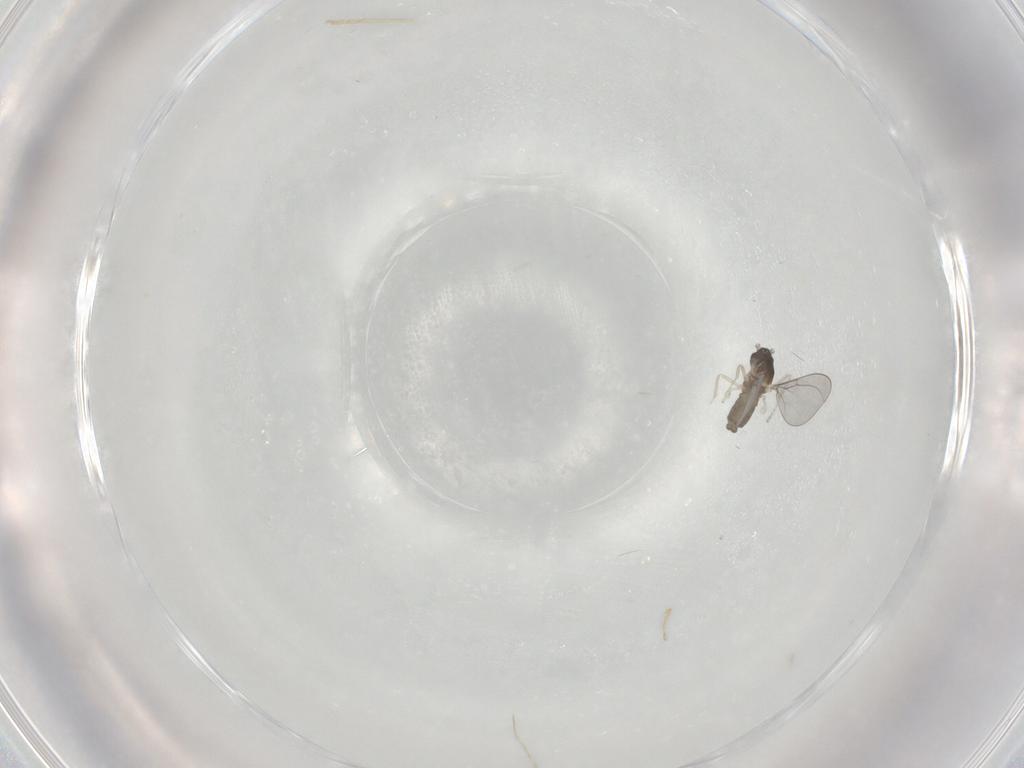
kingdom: Animalia
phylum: Arthropoda
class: Insecta
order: Diptera
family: Cecidomyiidae
